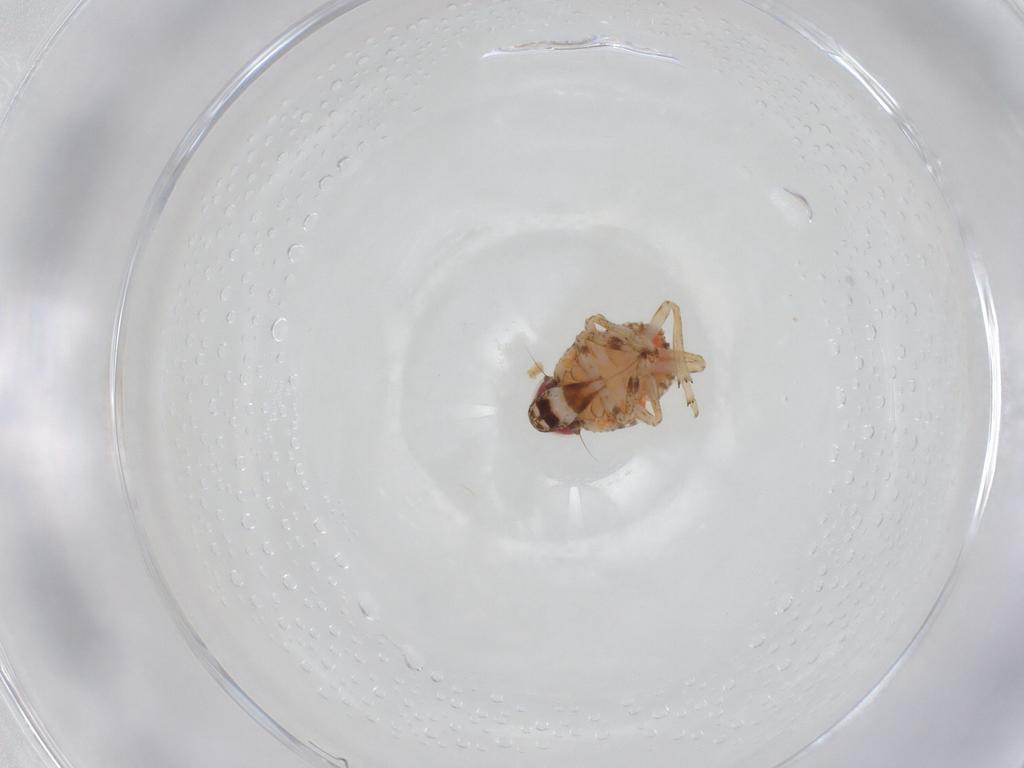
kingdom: Animalia
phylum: Arthropoda
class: Insecta
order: Hemiptera
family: Issidae
